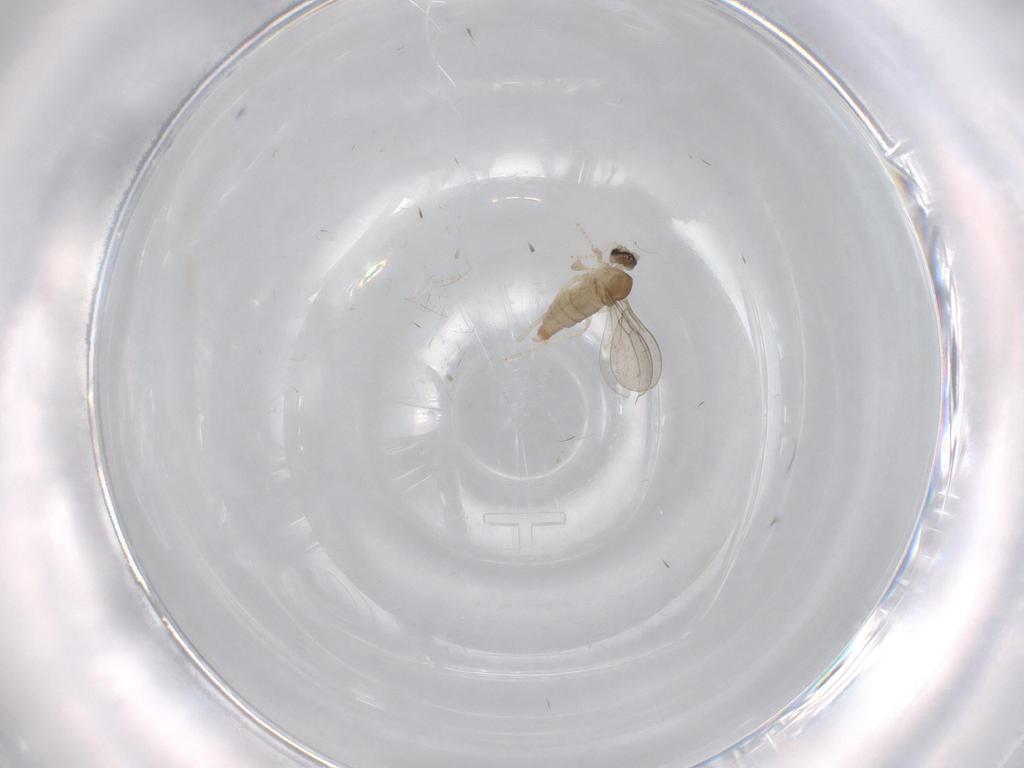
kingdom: Animalia
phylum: Arthropoda
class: Insecta
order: Diptera
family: Cecidomyiidae
